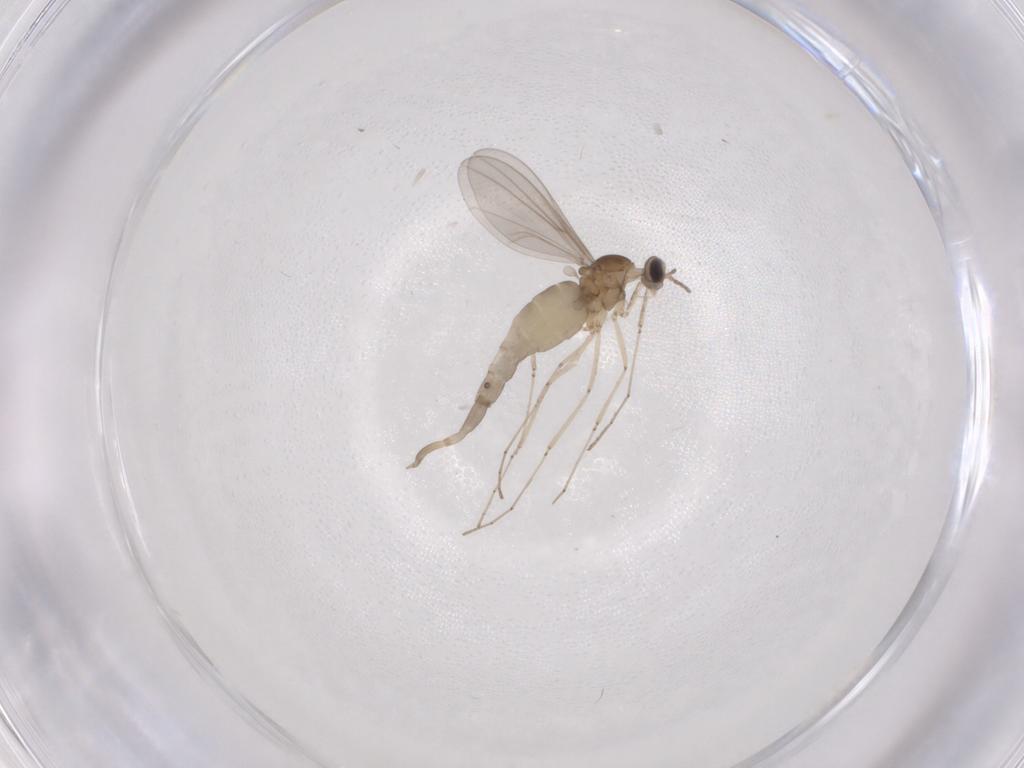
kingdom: Animalia
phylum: Arthropoda
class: Insecta
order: Diptera
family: Cecidomyiidae
